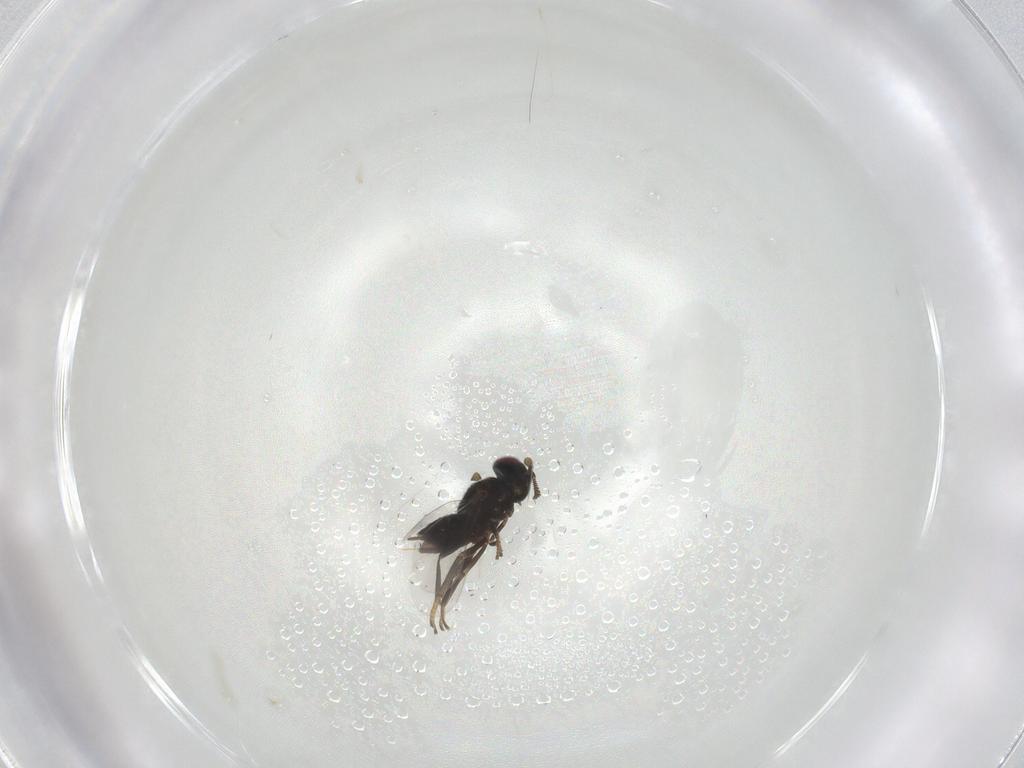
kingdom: Animalia
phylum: Arthropoda
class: Insecta
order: Hymenoptera
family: Encyrtidae
